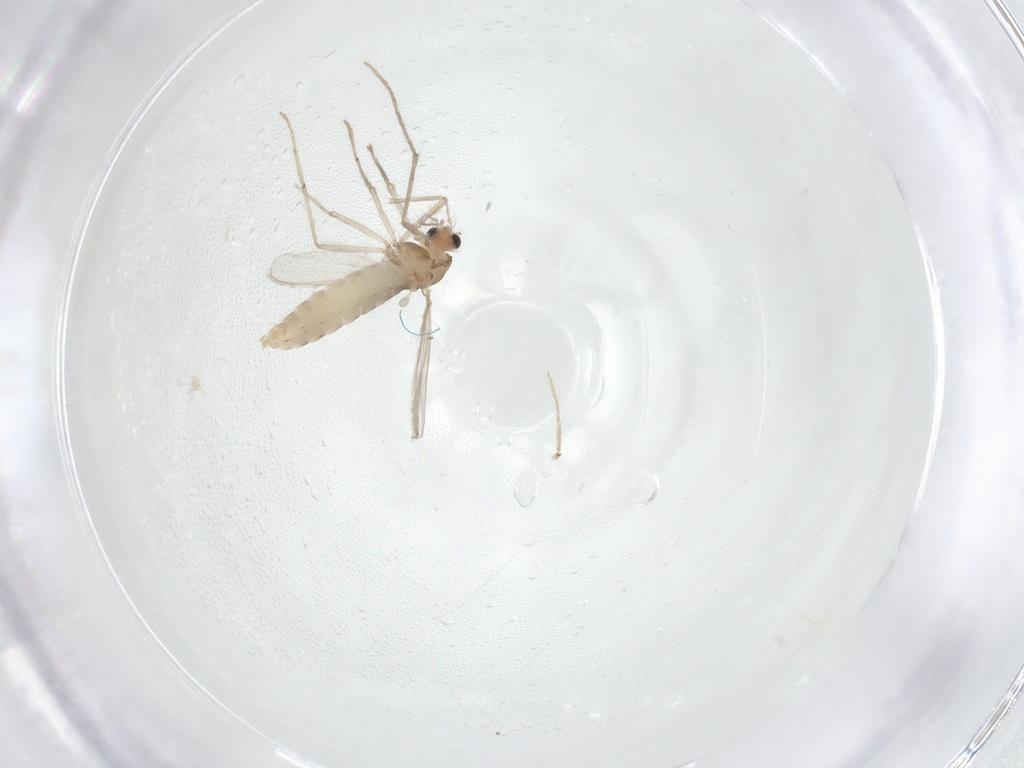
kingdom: Animalia
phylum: Arthropoda
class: Insecta
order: Diptera
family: Chironomidae
